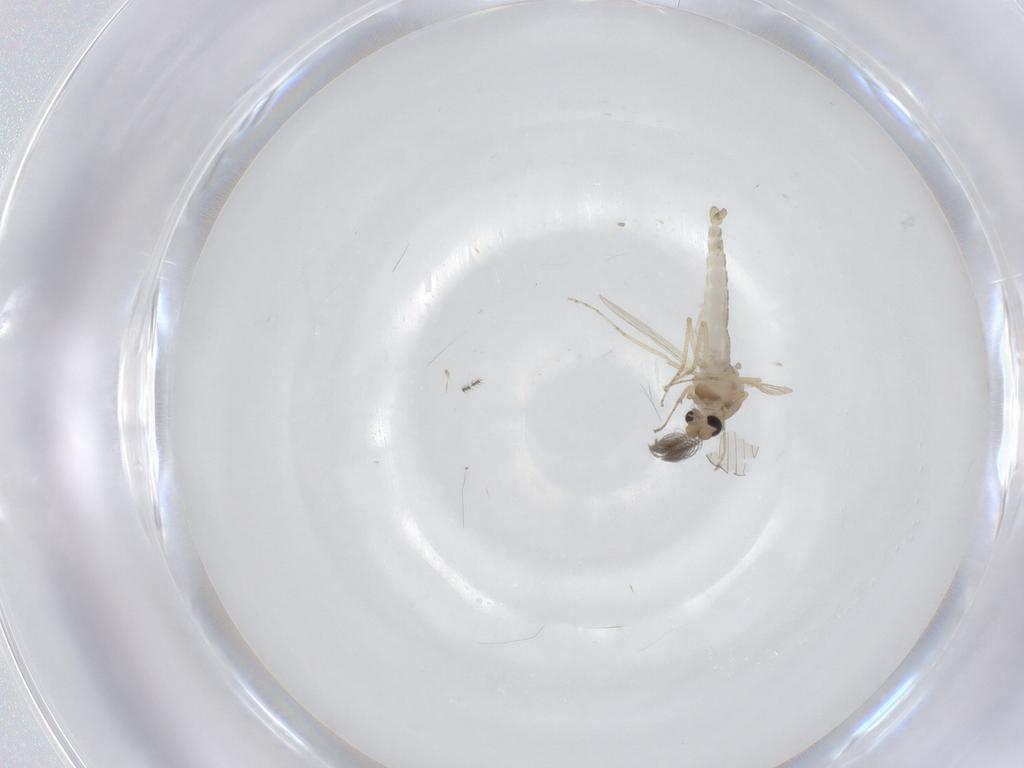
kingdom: Animalia
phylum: Arthropoda
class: Insecta
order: Diptera
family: Ceratopogonidae
